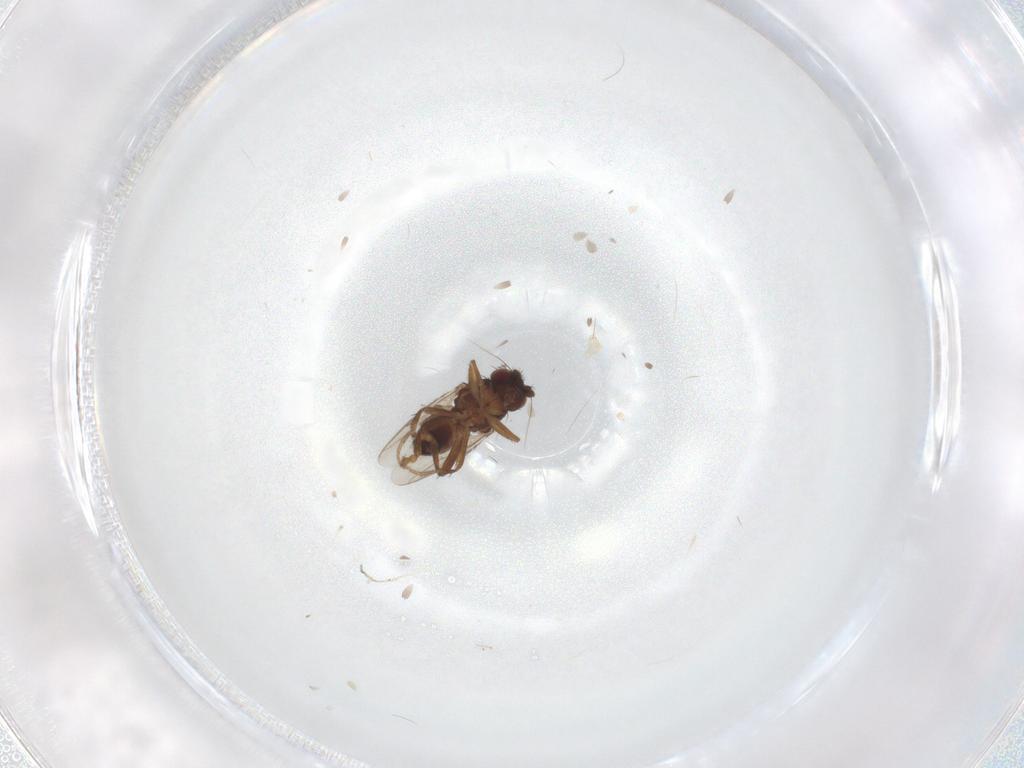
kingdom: Animalia
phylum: Arthropoda
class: Insecta
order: Diptera
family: Sphaeroceridae
